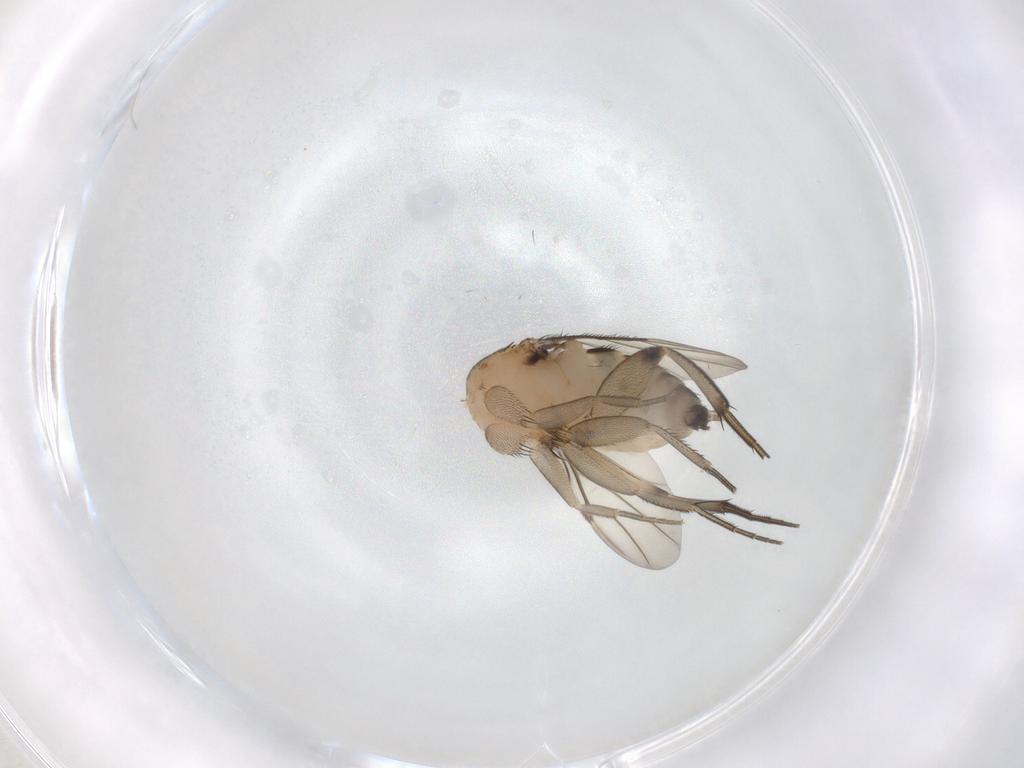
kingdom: Animalia
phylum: Arthropoda
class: Insecta
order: Diptera
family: Phoridae
